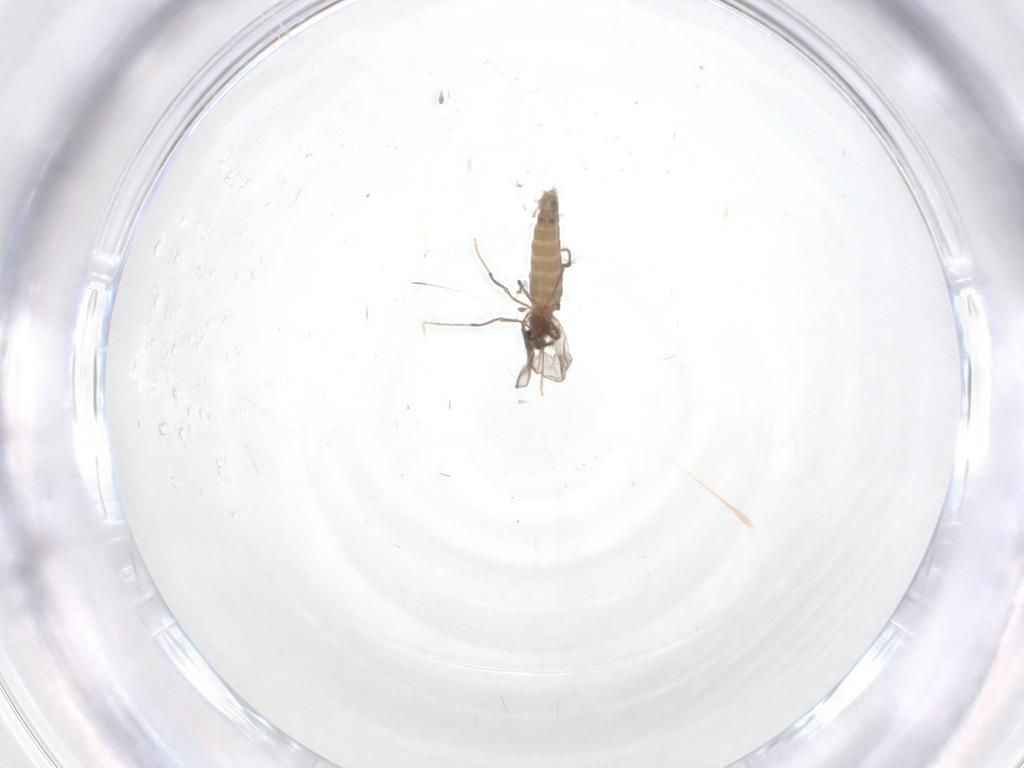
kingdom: Animalia
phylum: Arthropoda
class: Insecta
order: Diptera
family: Chironomidae
